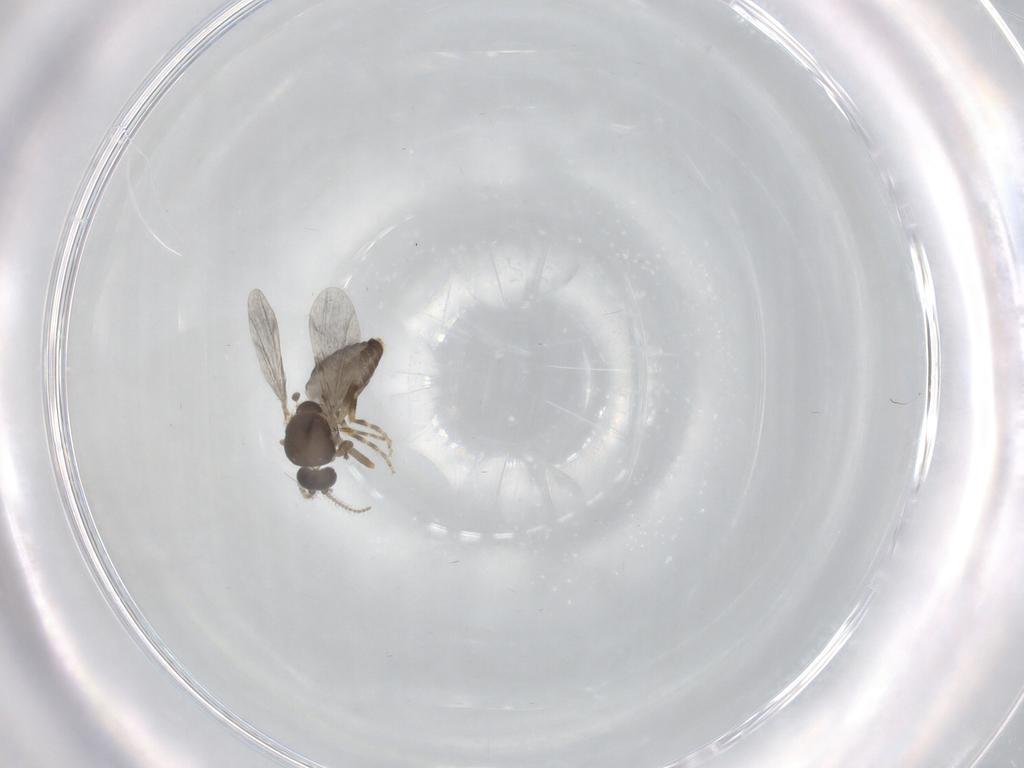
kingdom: Animalia
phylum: Arthropoda
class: Insecta
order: Diptera
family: Ceratopogonidae
